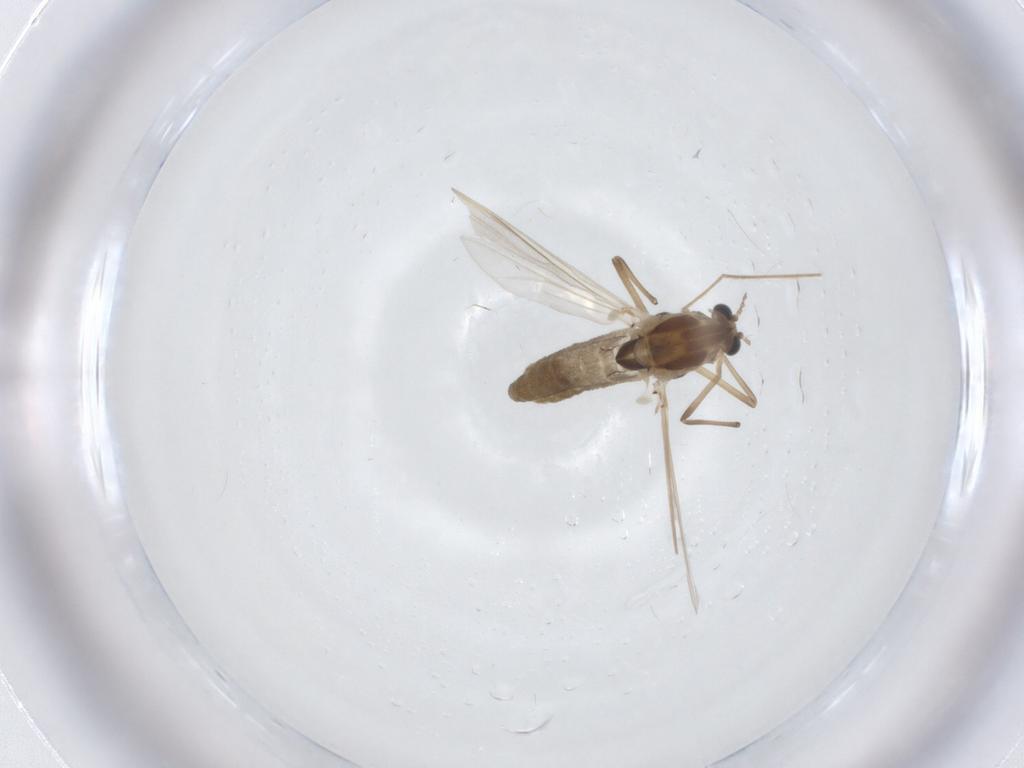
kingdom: Animalia
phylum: Arthropoda
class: Insecta
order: Diptera
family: Chironomidae
